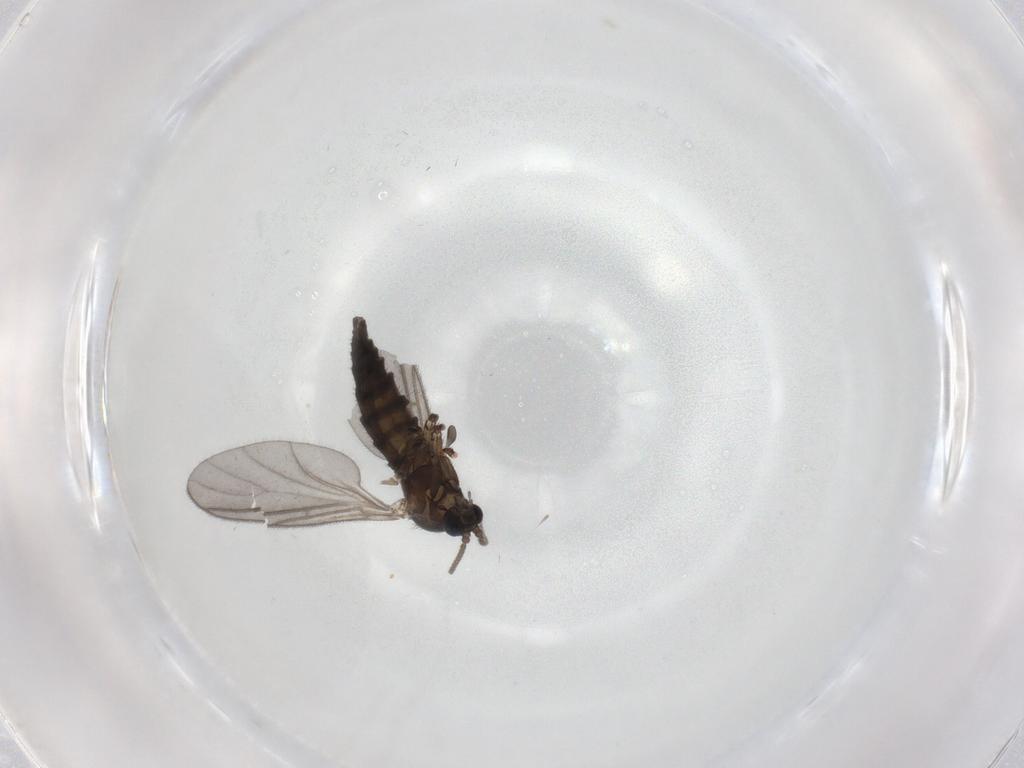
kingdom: Animalia
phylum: Arthropoda
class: Insecta
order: Diptera
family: Sciaridae
